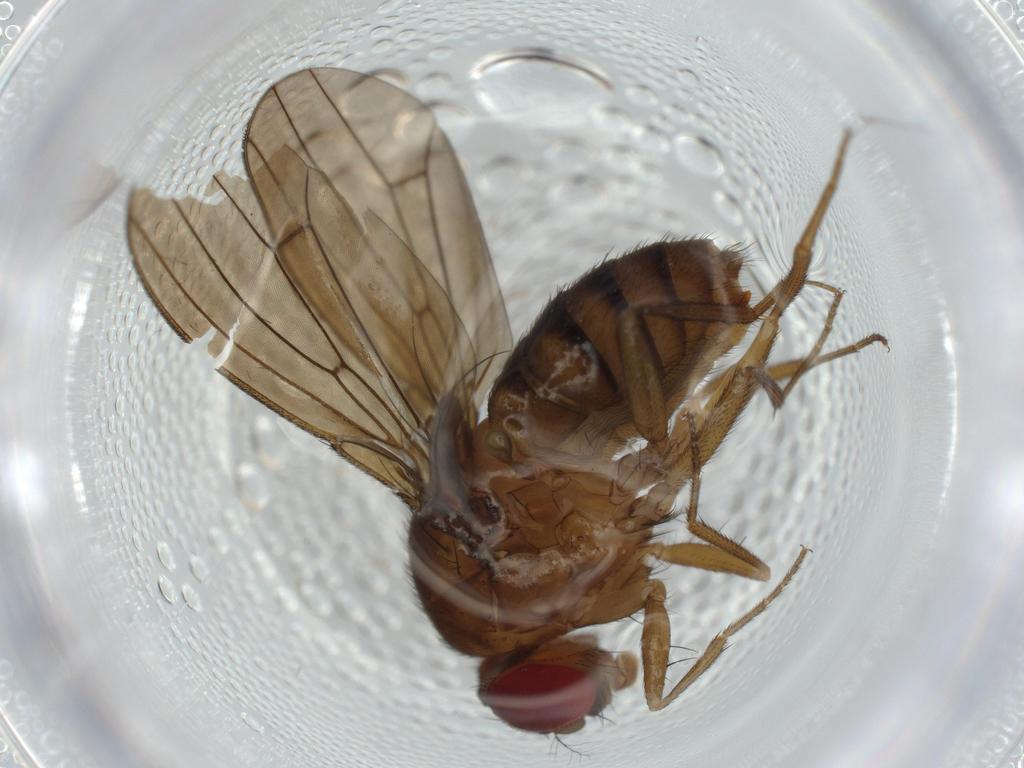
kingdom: Animalia
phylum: Arthropoda
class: Insecta
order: Diptera
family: Drosophilidae
